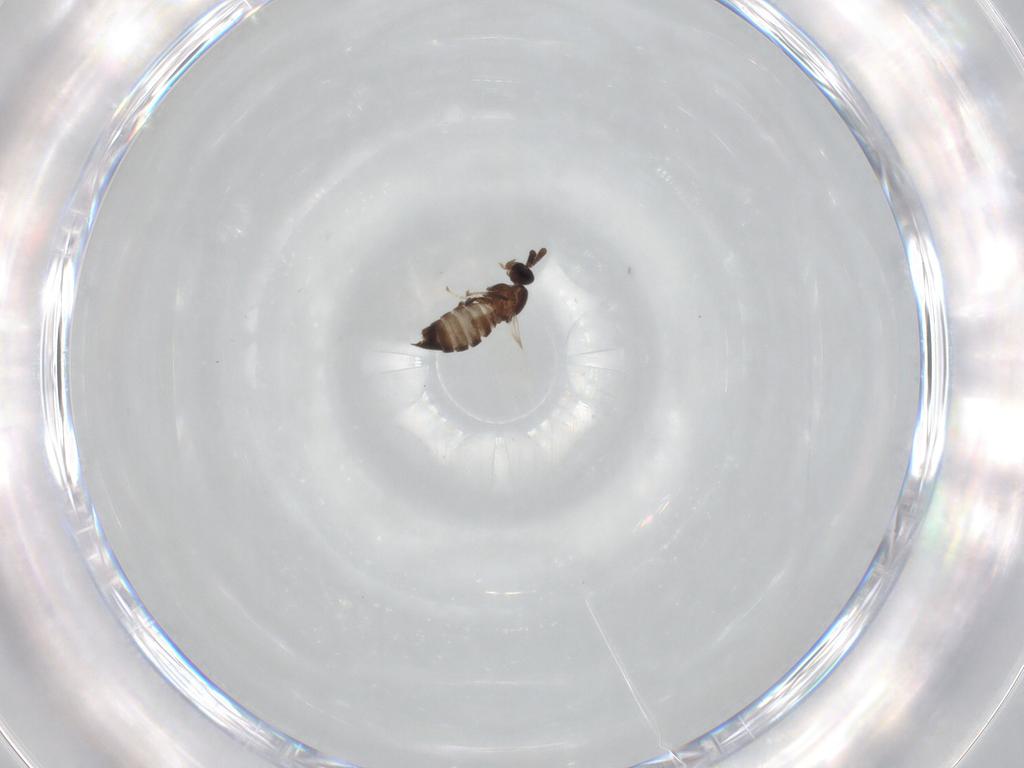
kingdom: Animalia
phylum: Arthropoda
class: Insecta
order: Diptera
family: Scatopsidae
